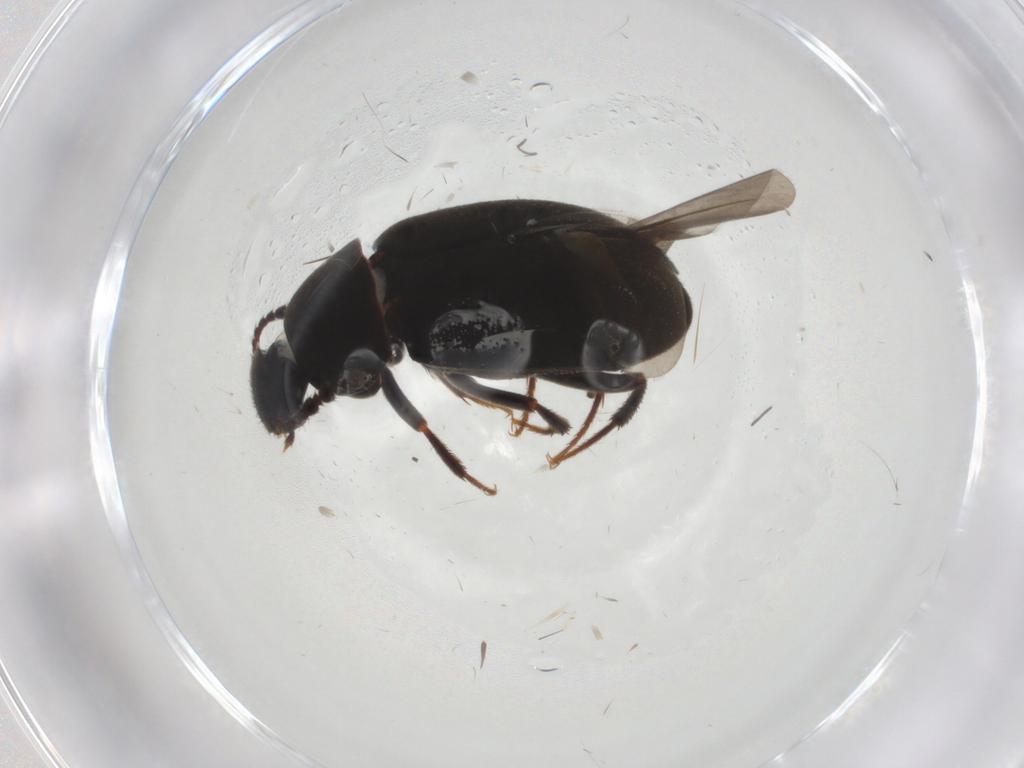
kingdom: Animalia
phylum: Arthropoda
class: Insecta
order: Coleoptera
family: Leiodidae
